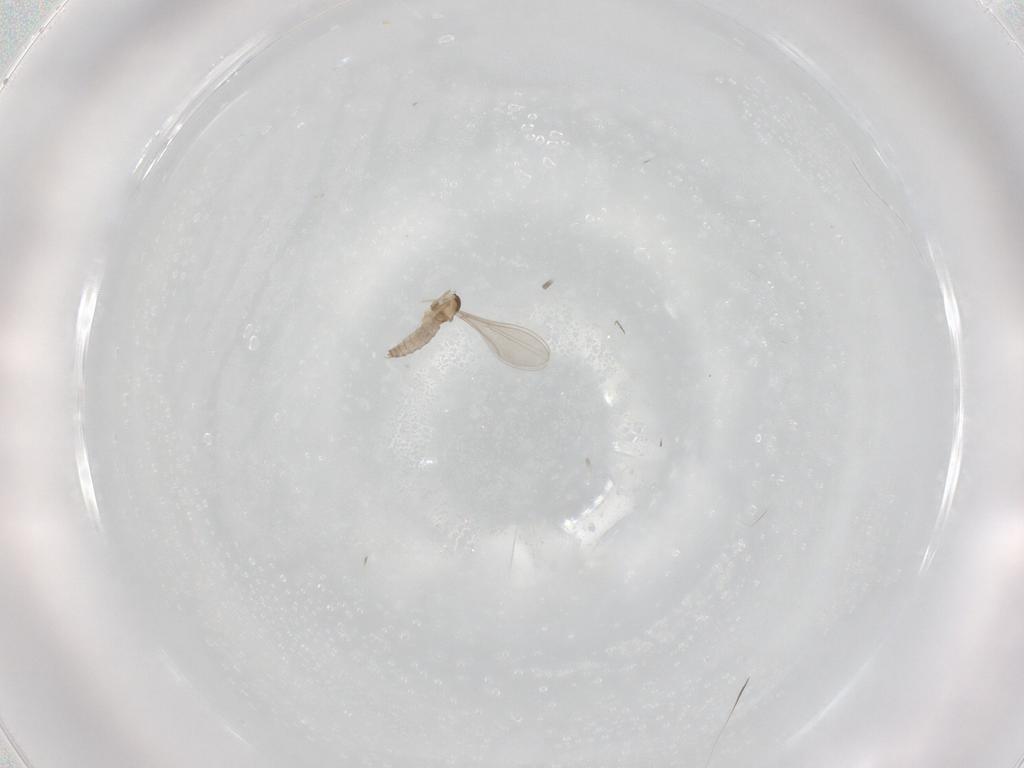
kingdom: Animalia
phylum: Arthropoda
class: Insecta
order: Diptera
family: Cecidomyiidae
